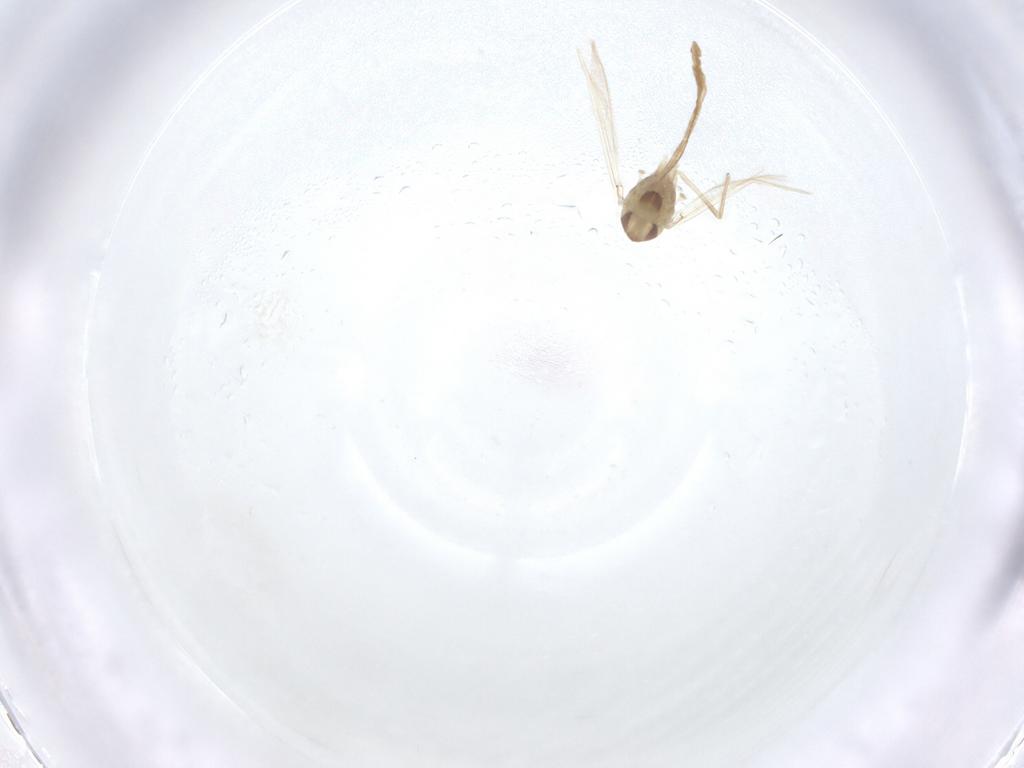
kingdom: Animalia
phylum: Arthropoda
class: Insecta
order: Diptera
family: Chironomidae
